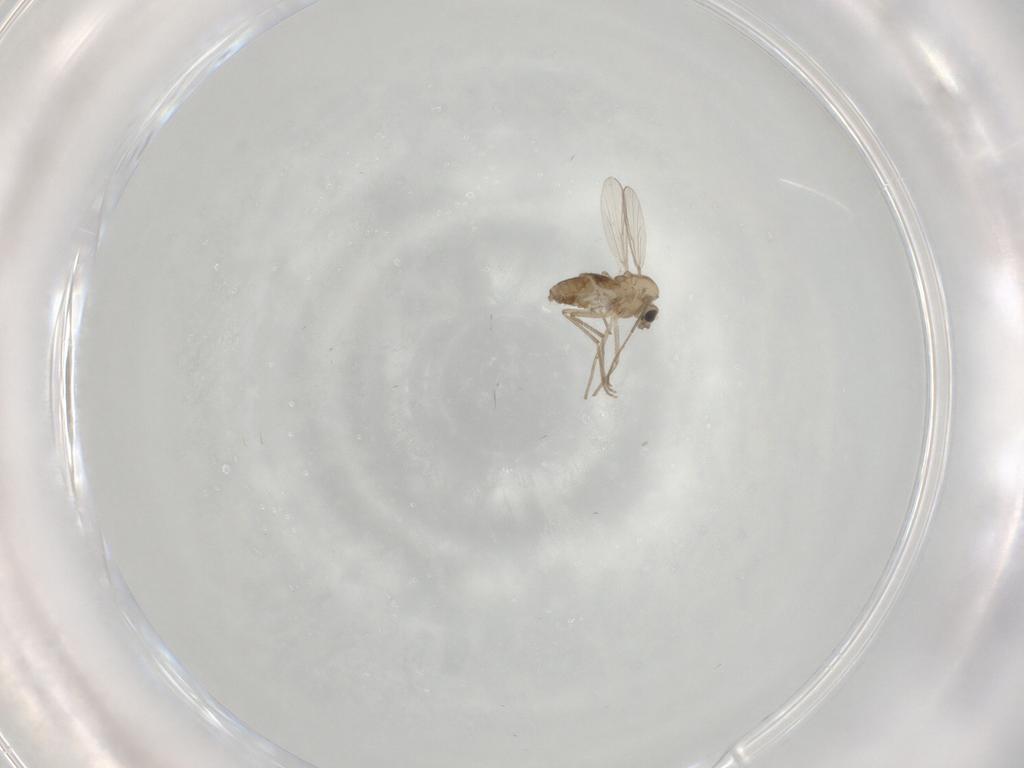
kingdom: Animalia
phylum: Arthropoda
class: Insecta
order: Diptera
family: Chironomidae
